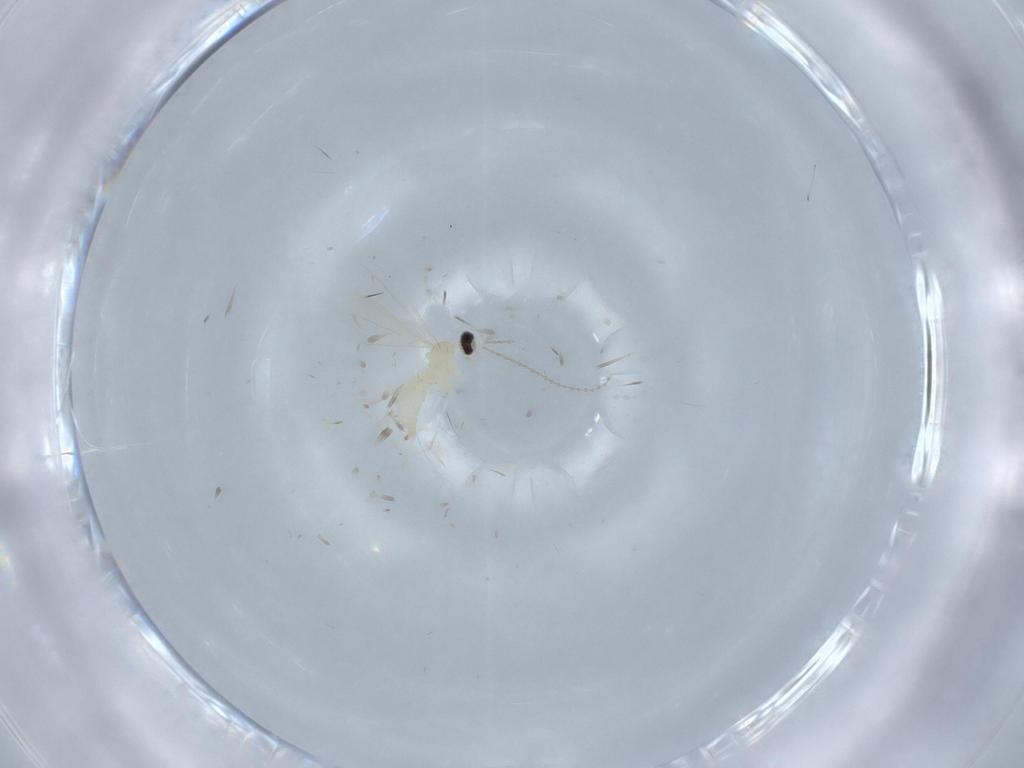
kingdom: Animalia
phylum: Arthropoda
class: Insecta
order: Diptera
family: Cecidomyiidae
